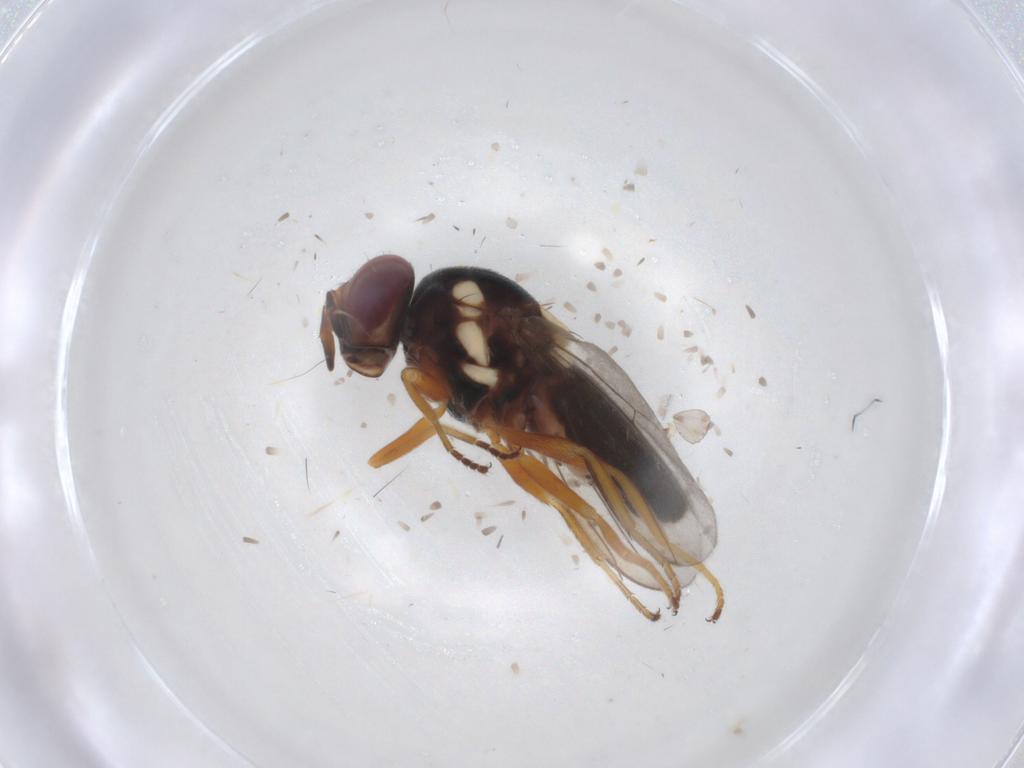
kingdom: Animalia
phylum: Arthropoda
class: Insecta
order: Diptera
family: Chloropidae
